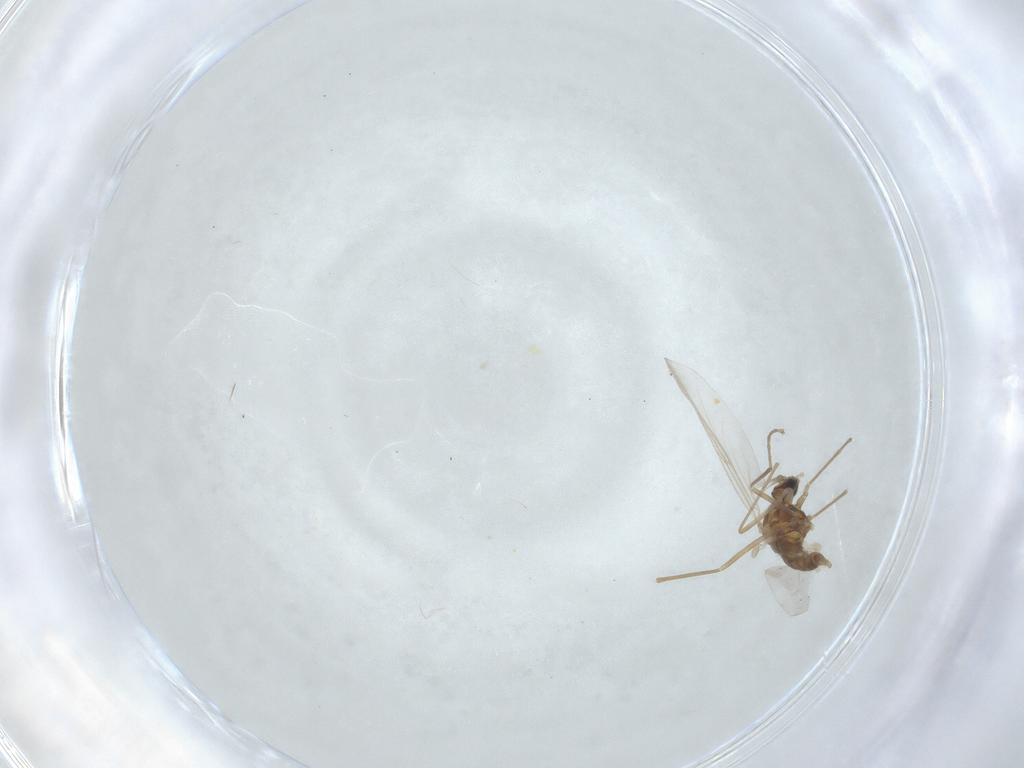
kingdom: Animalia
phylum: Arthropoda
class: Insecta
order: Diptera
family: Cecidomyiidae
